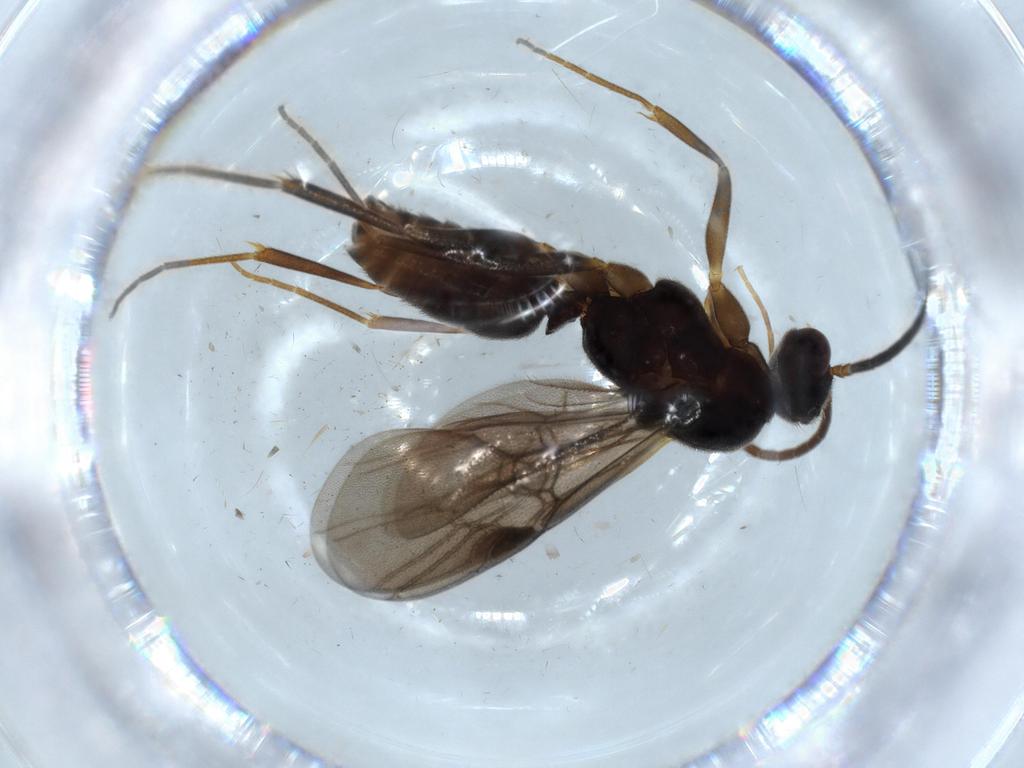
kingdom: Animalia
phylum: Arthropoda
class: Insecta
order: Hymenoptera
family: Formicidae
